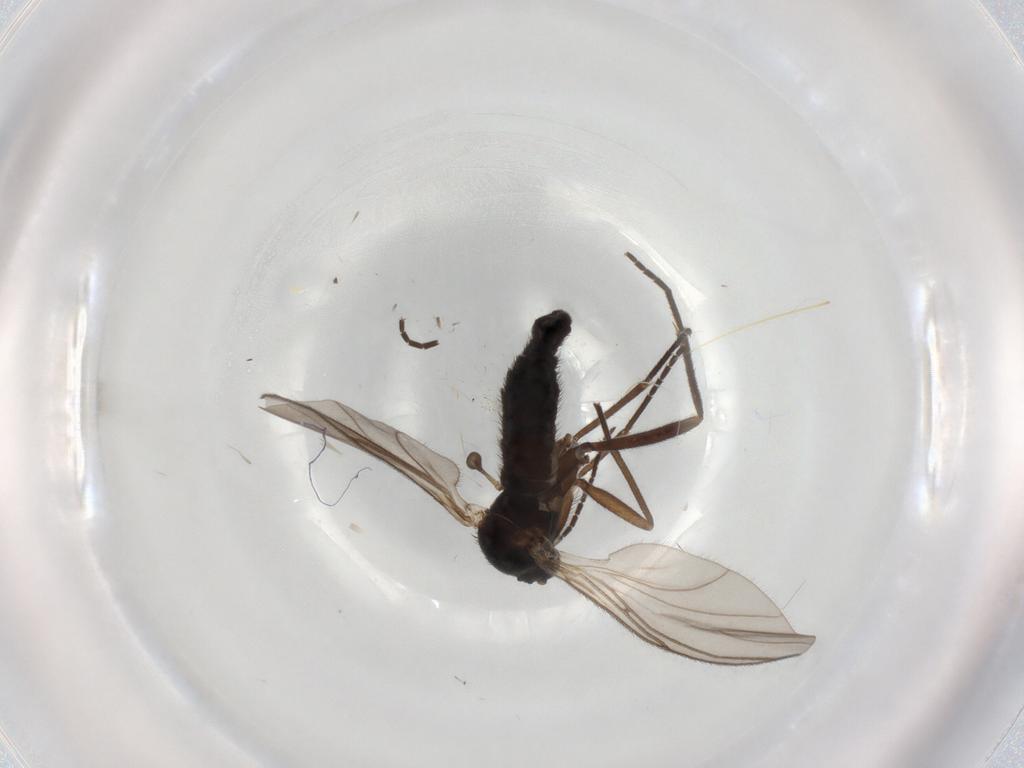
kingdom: Animalia
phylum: Arthropoda
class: Insecta
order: Diptera
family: Sciaridae
